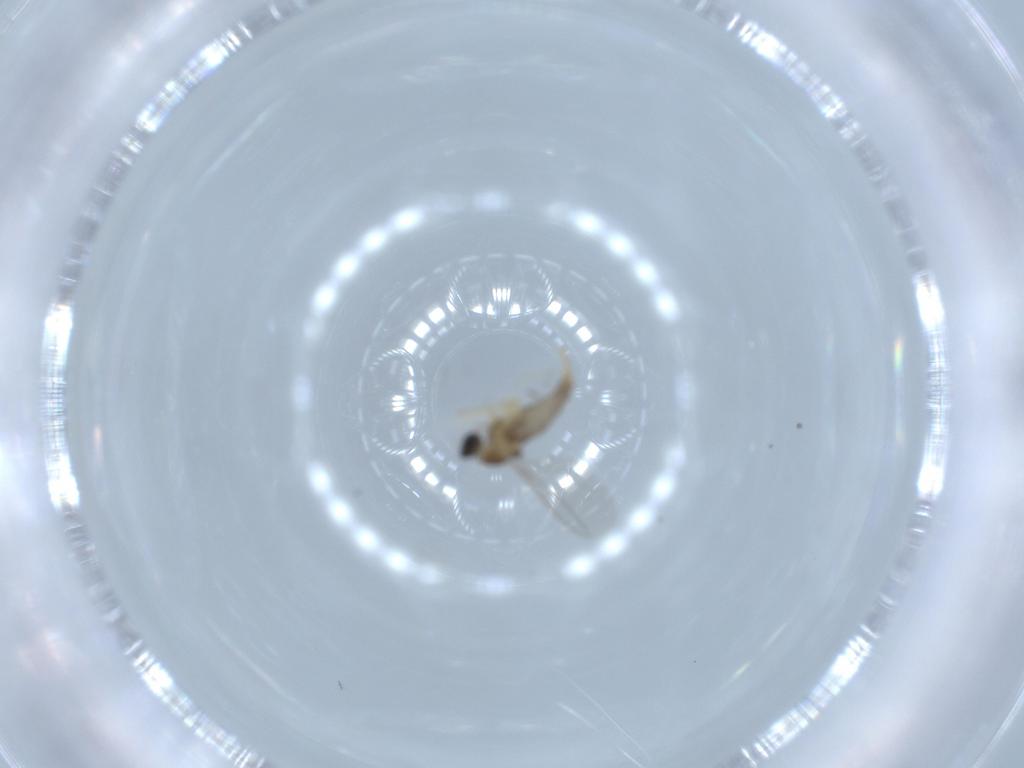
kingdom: Animalia
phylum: Arthropoda
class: Insecta
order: Diptera
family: Cecidomyiidae
